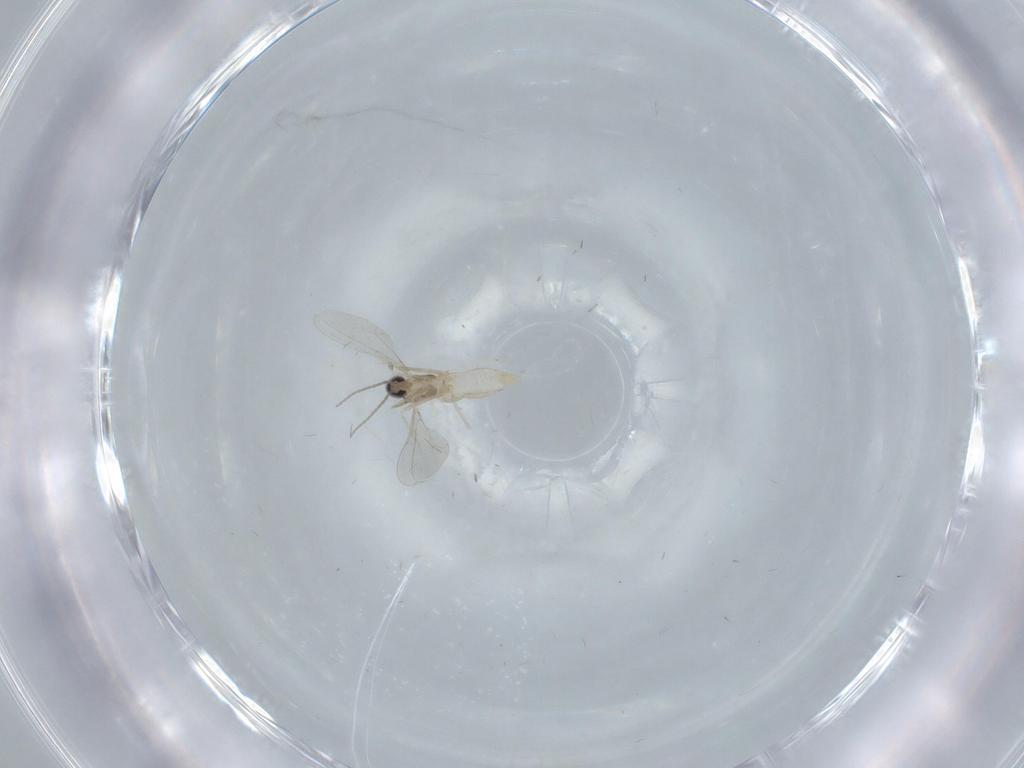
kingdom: Animalia
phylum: Arthropoda
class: Insecta
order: Diptera
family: Cecidomyiidae
